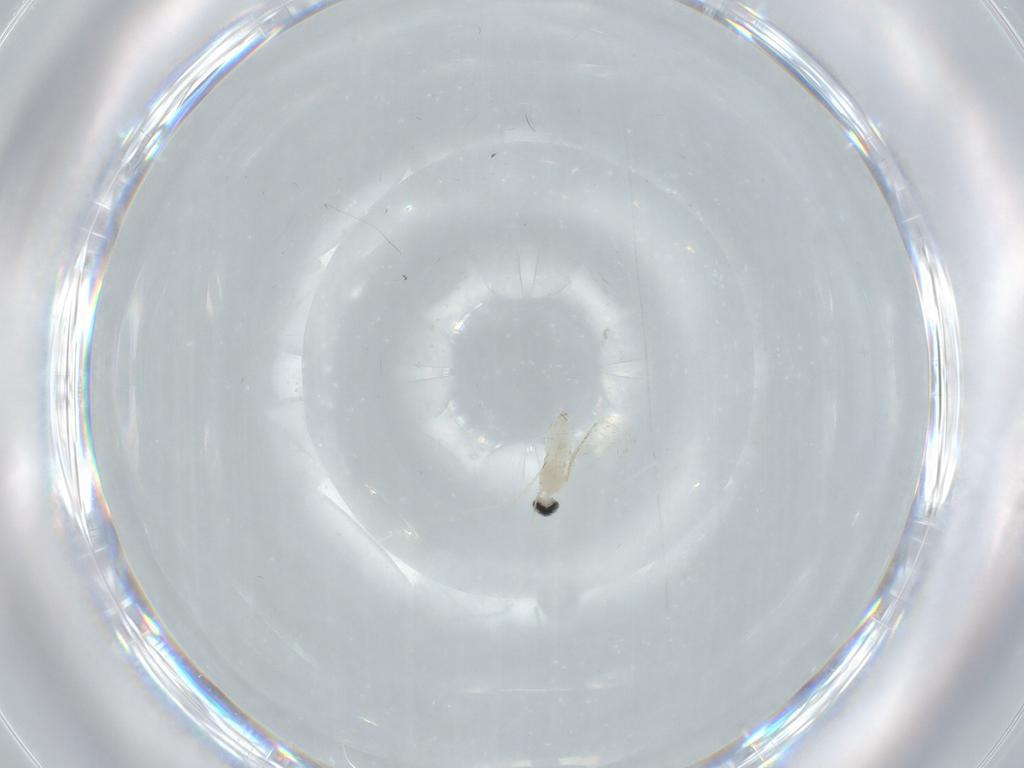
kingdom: Animalia
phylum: Arthropoda
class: Insecta
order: Diptera
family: Cecidomyiidae
